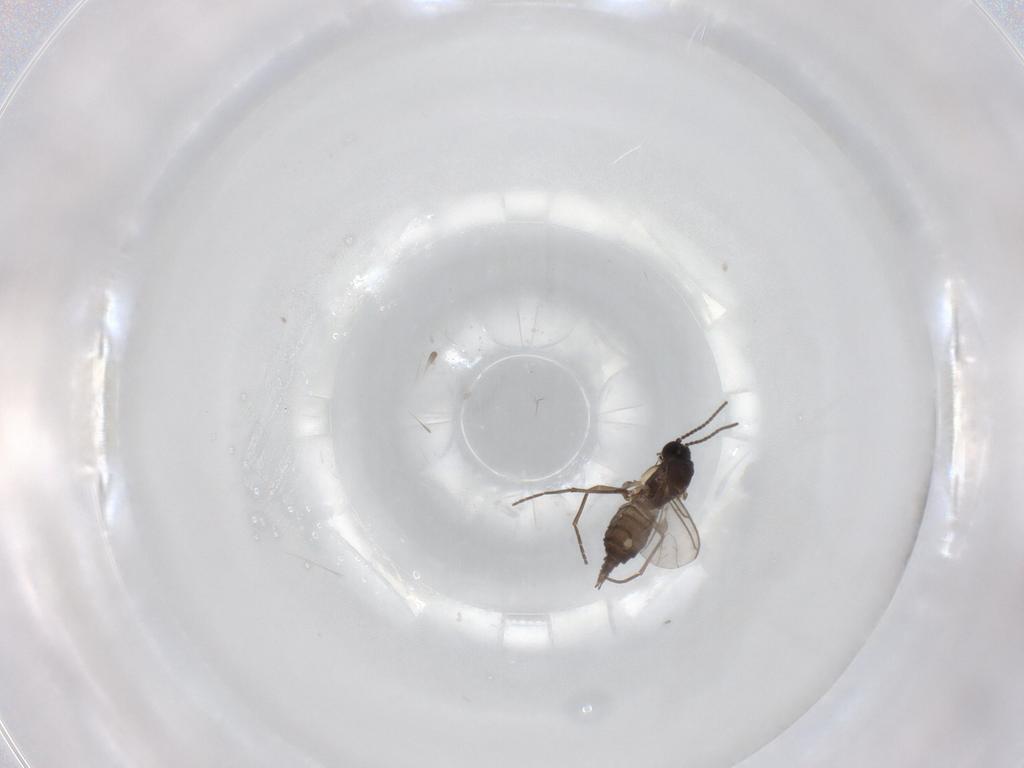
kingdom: Animalia
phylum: Arthropoda
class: Insecta
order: Diptera
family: Sciaridae
